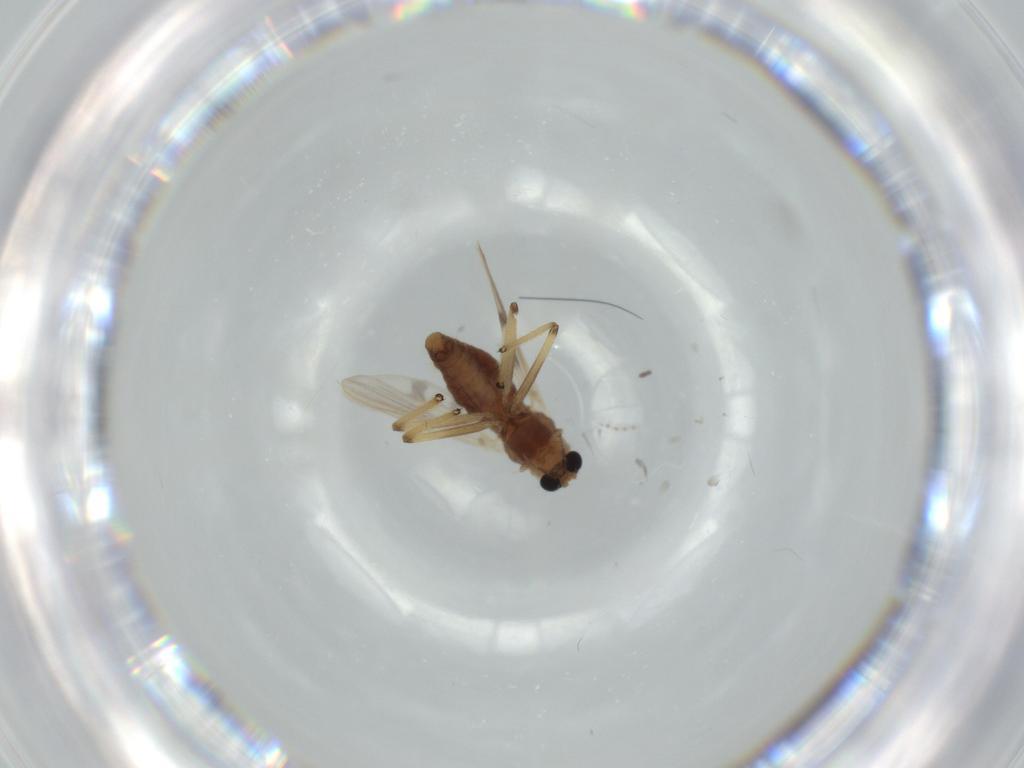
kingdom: Animalia
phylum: Arthropoda
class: Insecta
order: Diptera
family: Chironomidae
